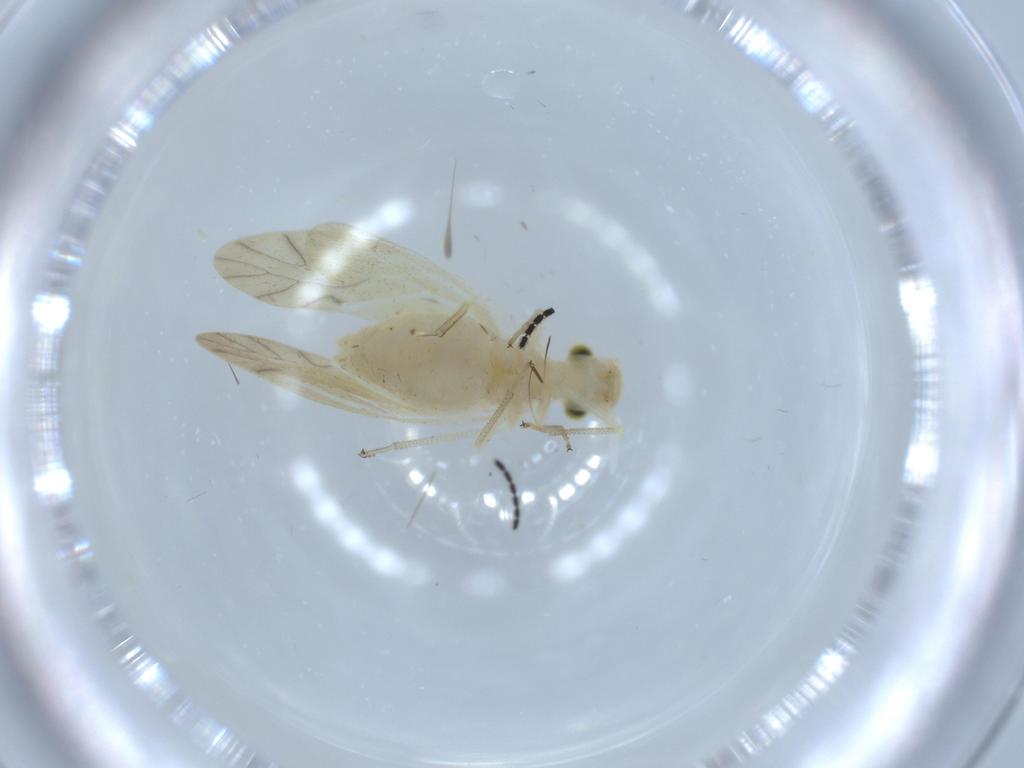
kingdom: Animalia
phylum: Arthropoda
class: Insecta
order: Psocodea
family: Caeciliusidae
